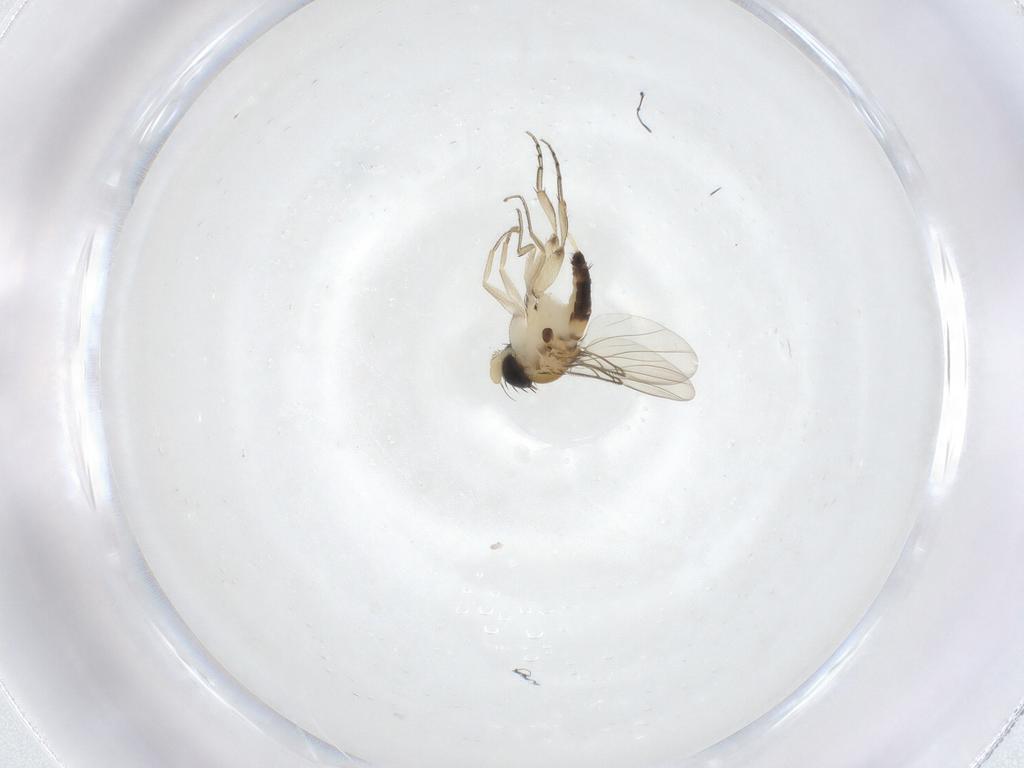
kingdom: Animalia
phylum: Arthropoda
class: Insecta
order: Diptera
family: Phoridae
